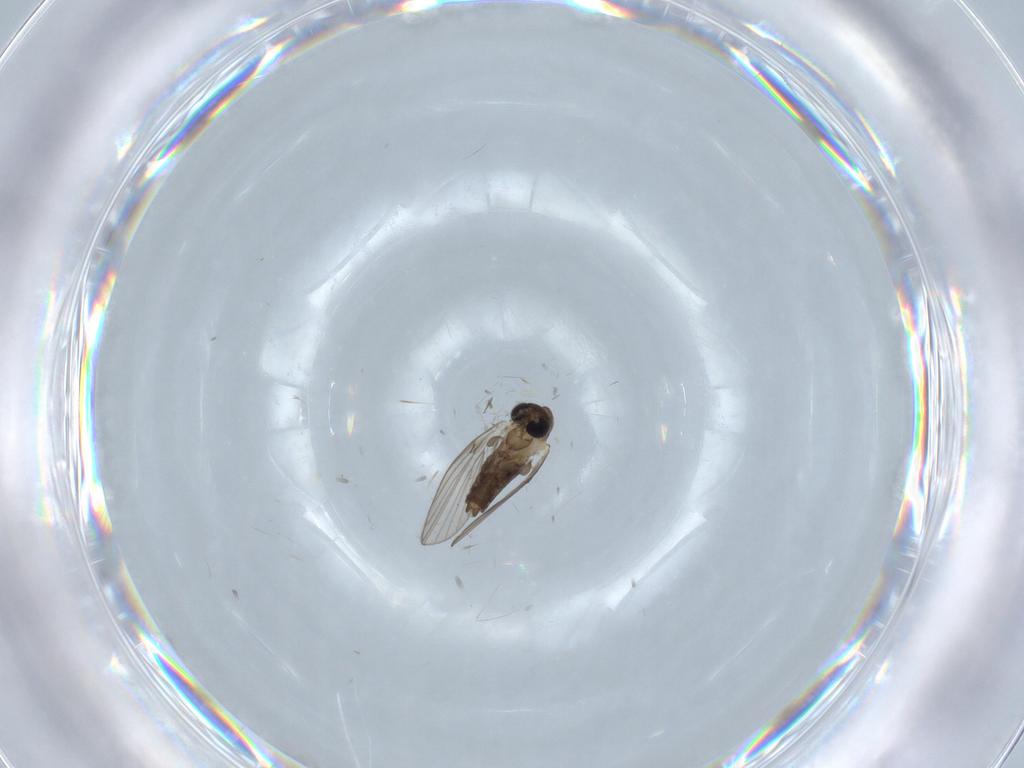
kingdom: Animalia
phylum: Arthropoda
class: Insecta
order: Diptera
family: Psychodidae
